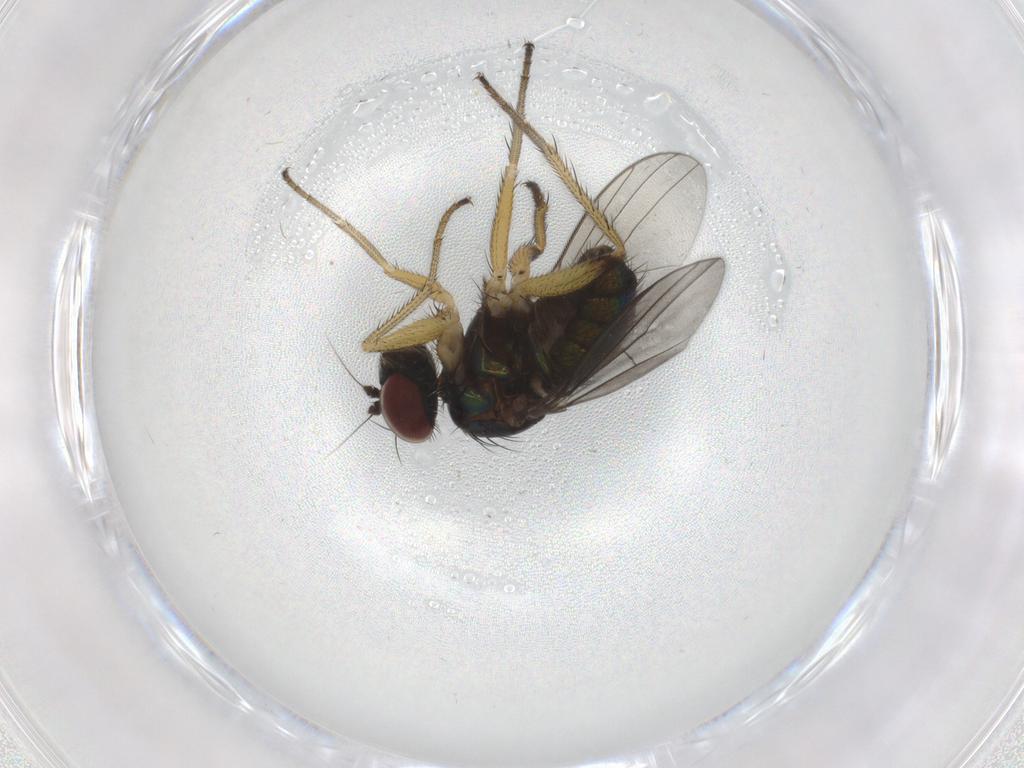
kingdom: Animalia
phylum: Arthropoda
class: Insecta
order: Diptera
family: Dolichopodidae
